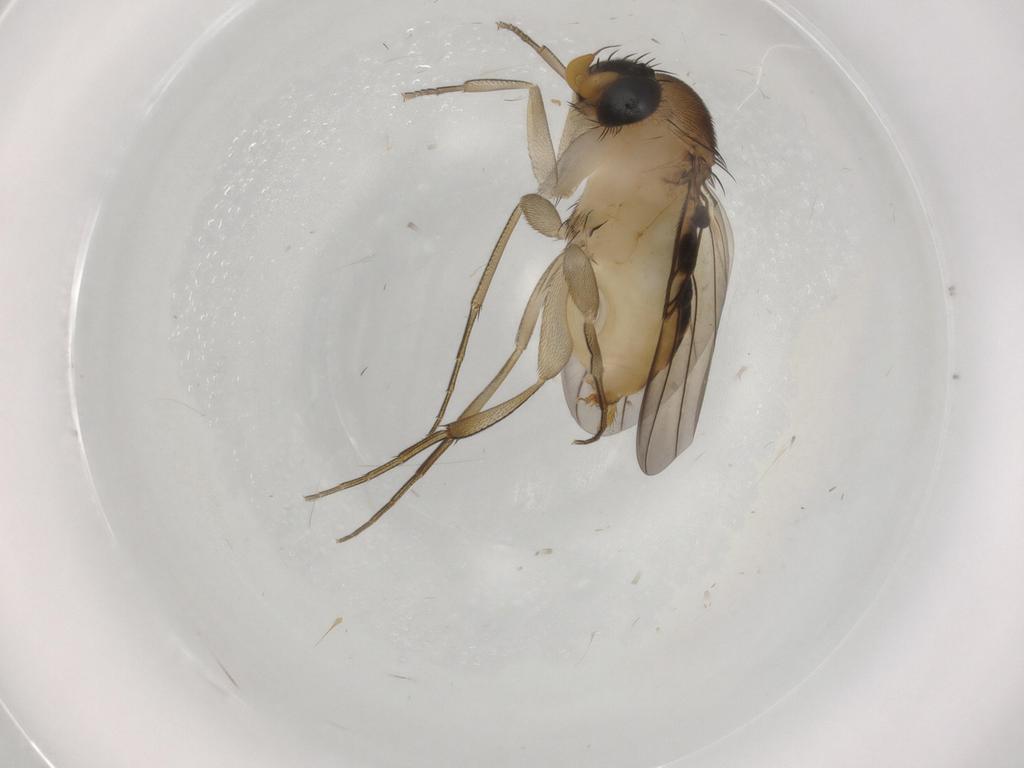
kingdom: Animalia
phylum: Arthropoda
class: Insecta
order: Diptera
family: Phoridae
